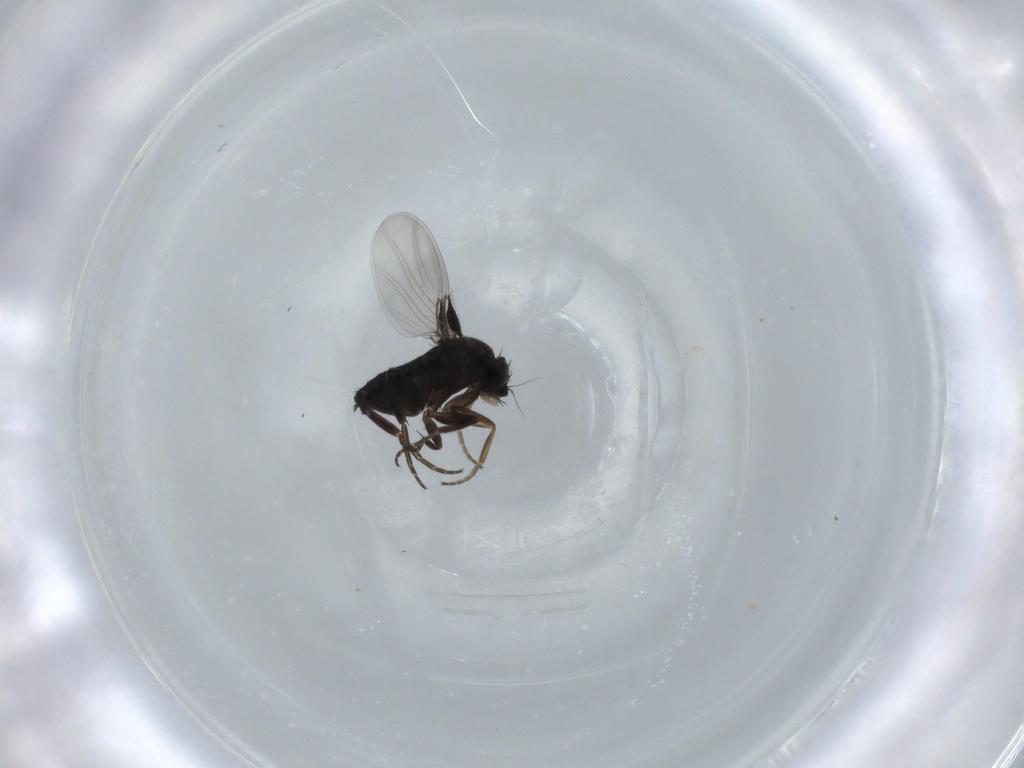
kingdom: Animalia
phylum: Arthropoda
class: Insecta
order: Diptera
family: Phoridae
